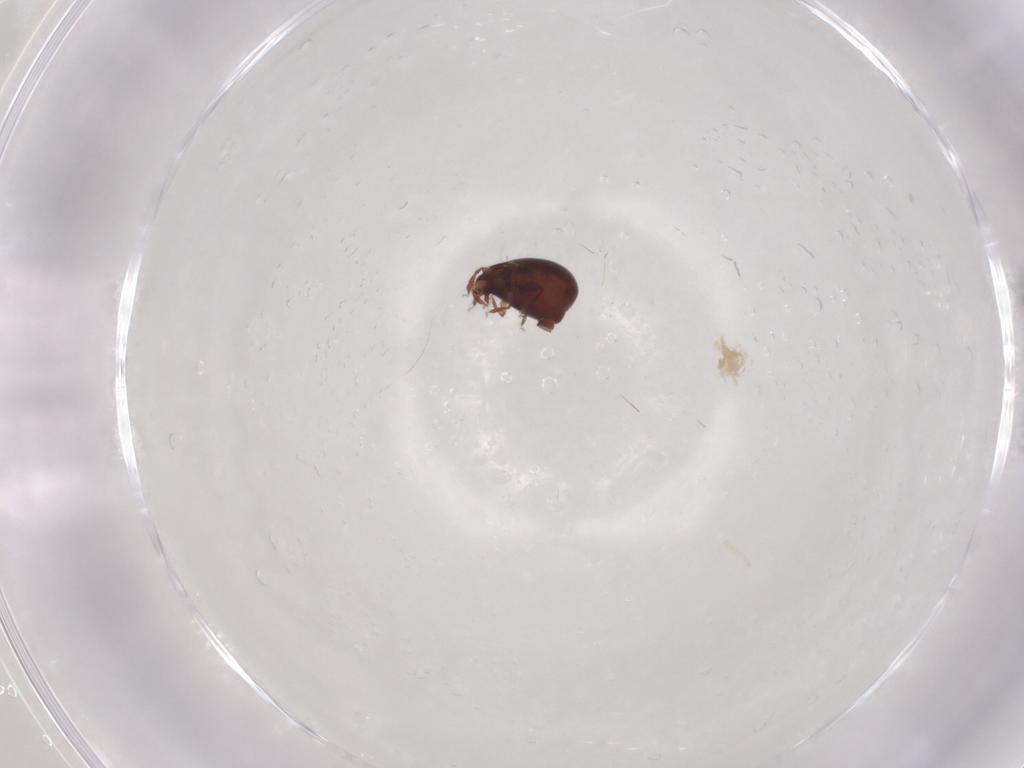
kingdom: Animalia
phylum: Arthropoda
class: Arachnida
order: Sarcoptiformes
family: Humerobatidae
